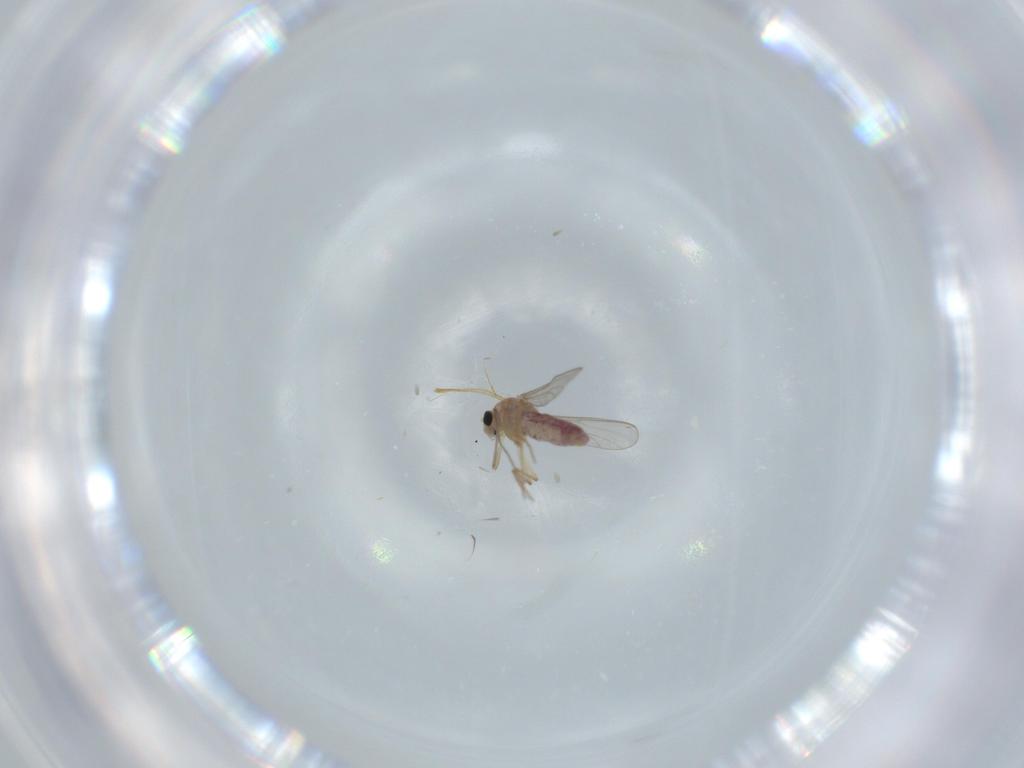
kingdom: Animalia
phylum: Arthropoda
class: Insecta
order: Diptera
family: Chironomidae
